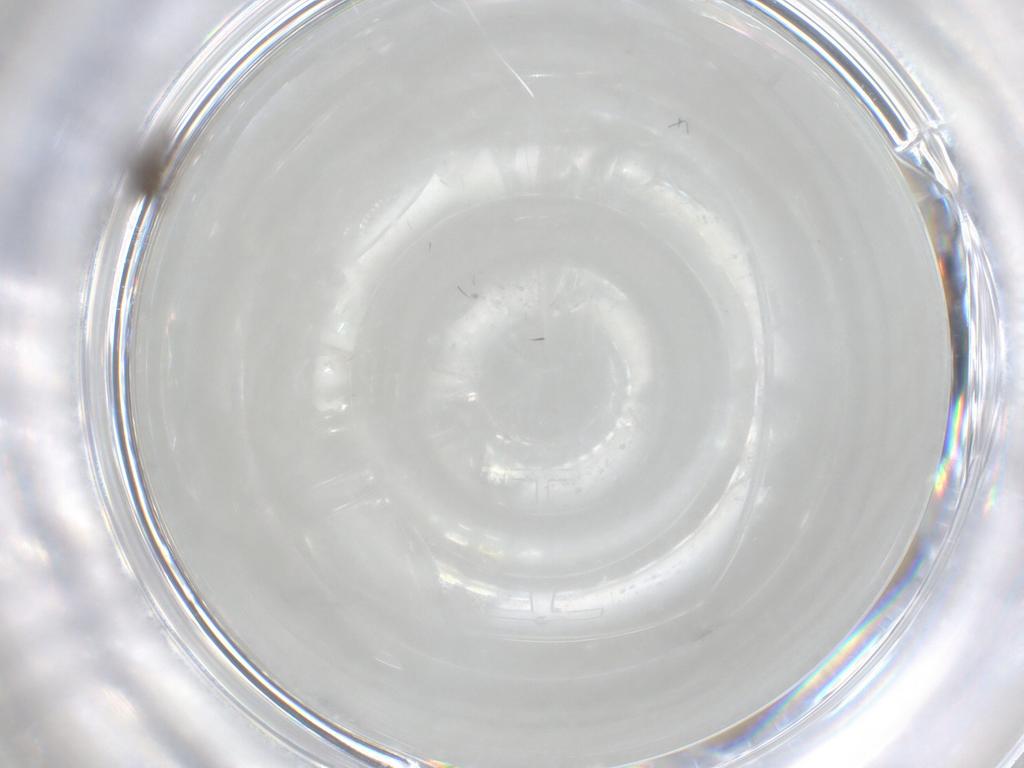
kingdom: Animalia
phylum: Arthropoda
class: Insecta
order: Diptera
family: Chironomidae
